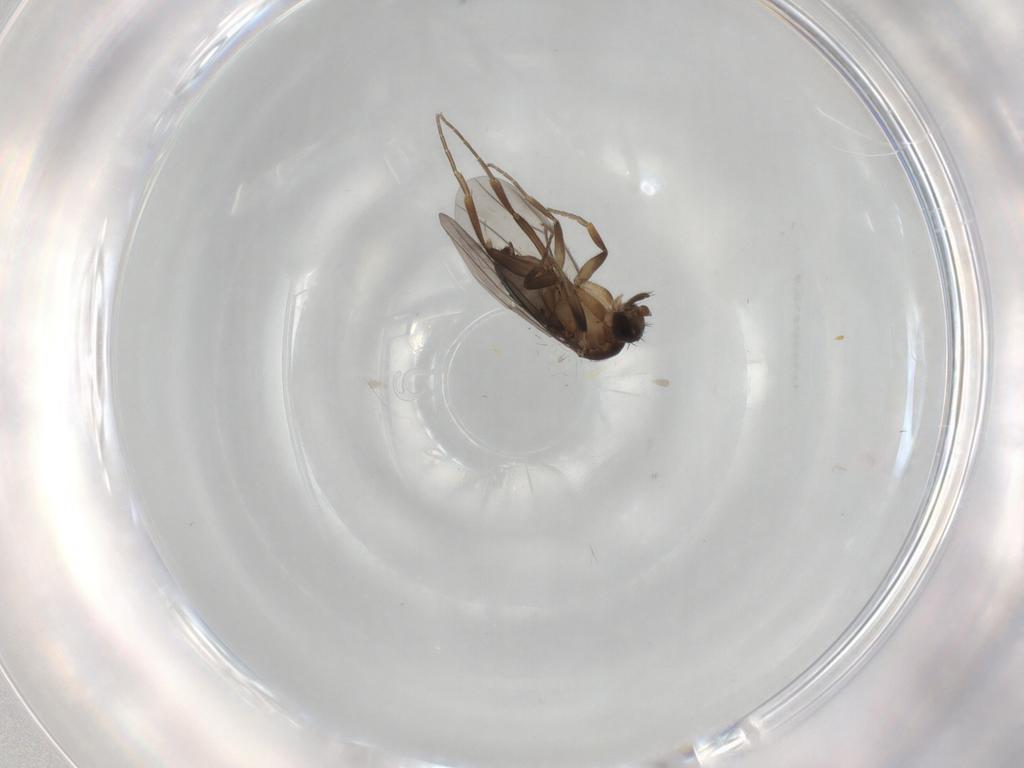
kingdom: Animalia
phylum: Arthropoda
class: Insecta
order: Diptera
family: Phoridae
